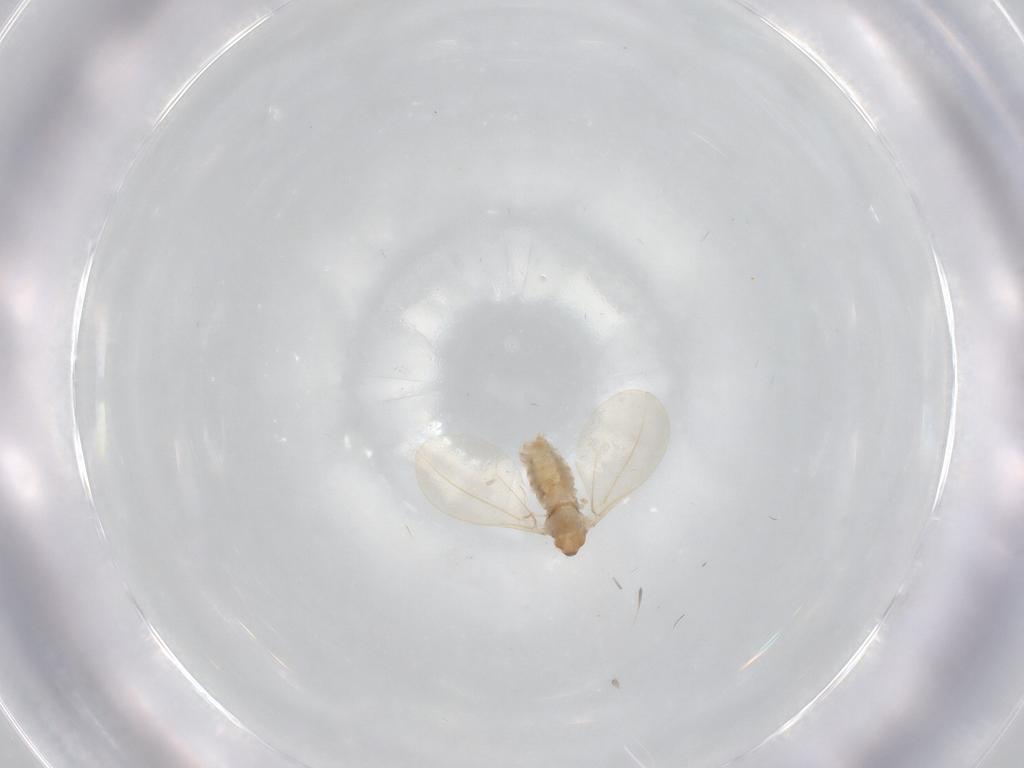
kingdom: Animalia
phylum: Arthropoda
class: Insecta
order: Diptera
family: Cecidomyiidae
